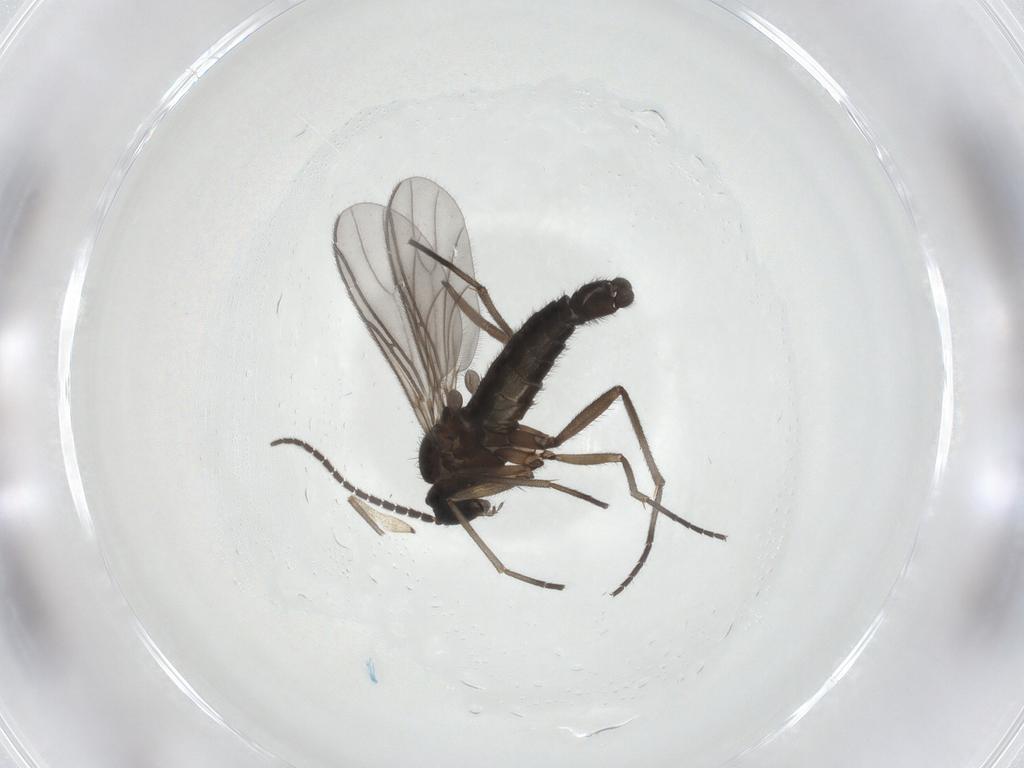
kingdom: Animalia
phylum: Arthropoda
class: Insecta
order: Diptera
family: Sciaridae
